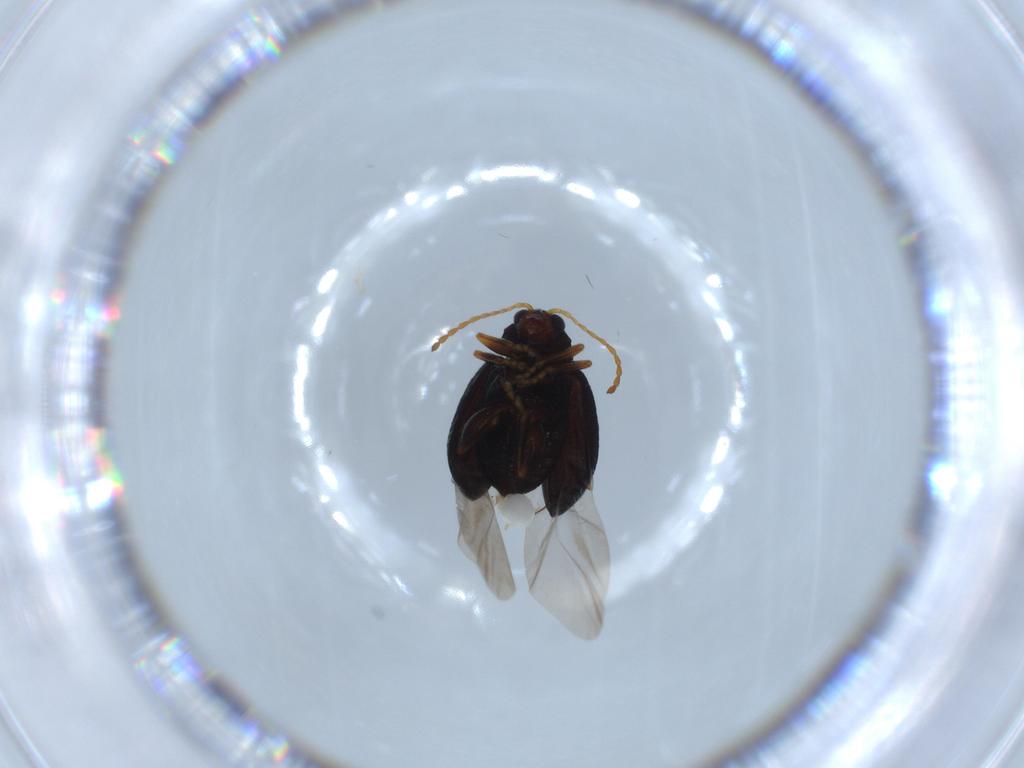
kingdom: Animalia
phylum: Arthropoda
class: Insecta
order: Coleoptera
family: Chrysomelidae
